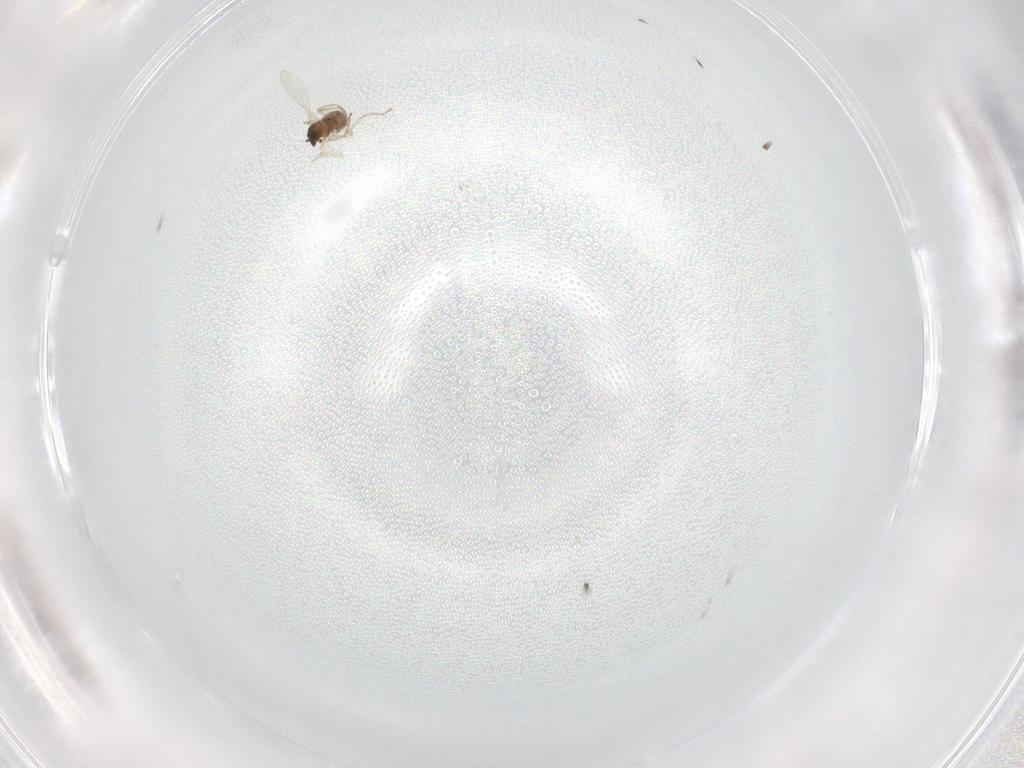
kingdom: Animalia
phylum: Arthropoda
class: Insecta
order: Diptera
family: Cecidomyiidae
